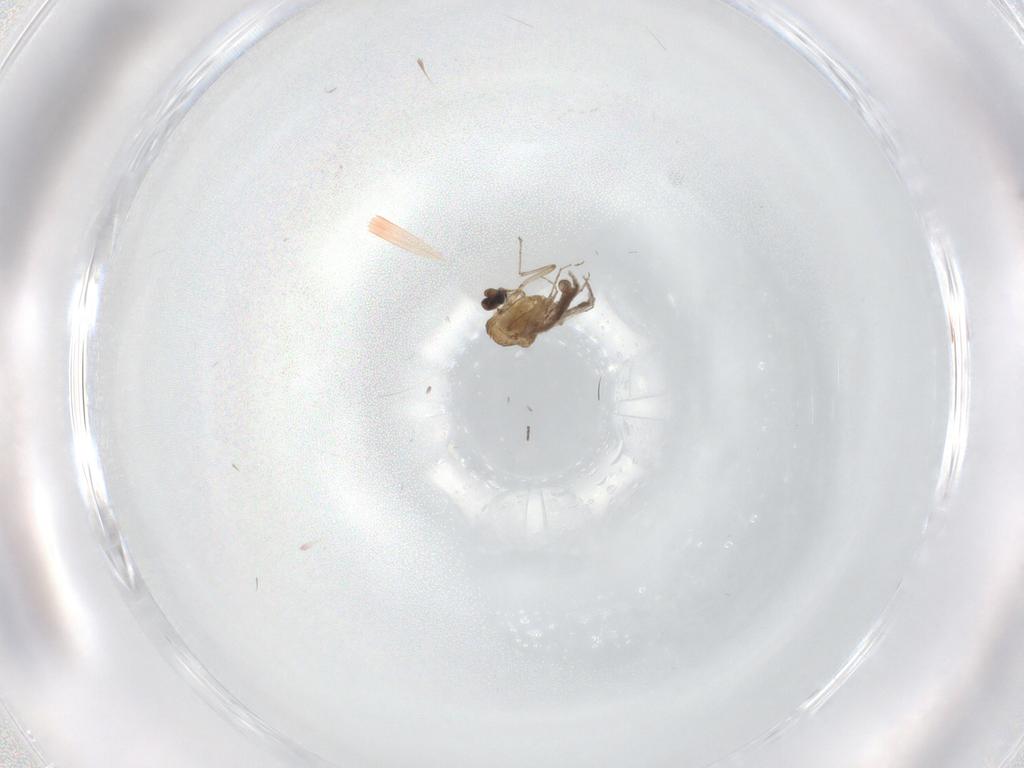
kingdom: Animalia
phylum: Arthropoda
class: Insecta
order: Diptera
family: Ceratopogonidae
